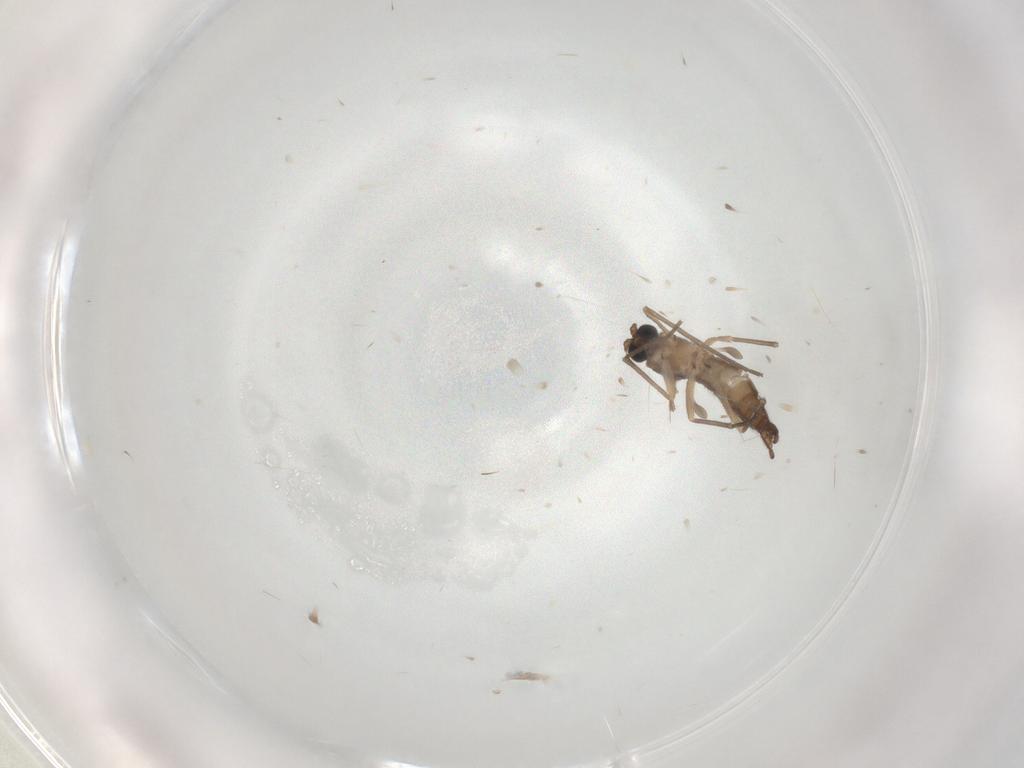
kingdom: Animalia
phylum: Arthropoda
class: Insecta
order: Diptera
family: Sciaridae
